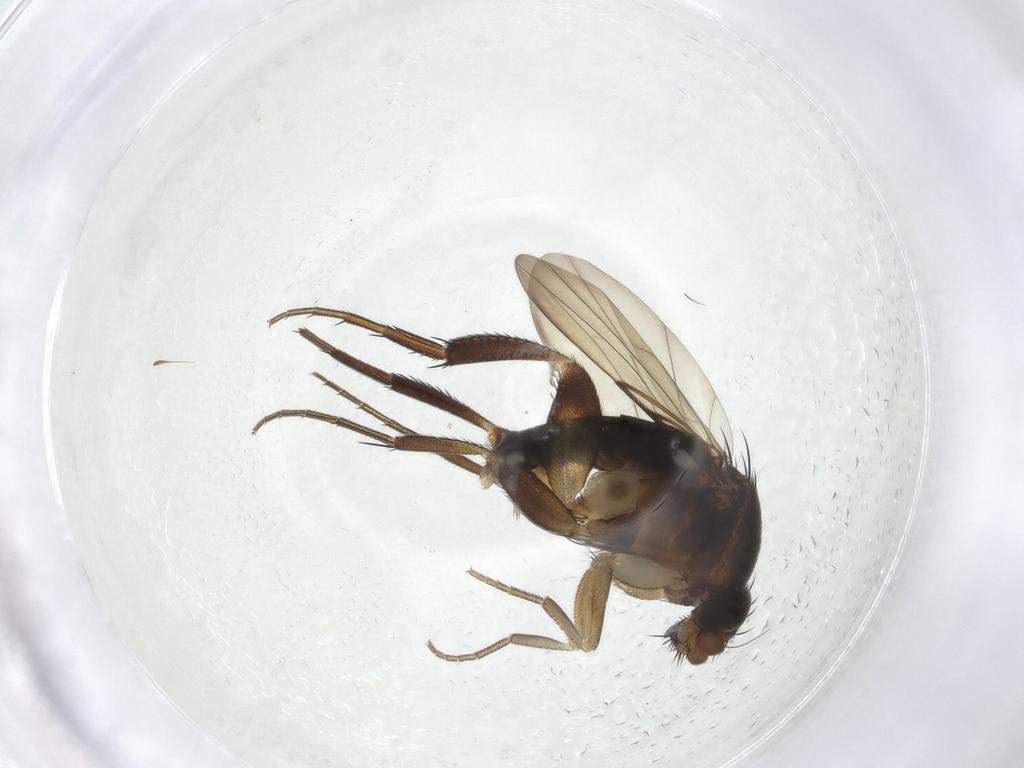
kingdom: Animalia
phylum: Arthropoda
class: Insecta
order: Diptera
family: Phoridae
